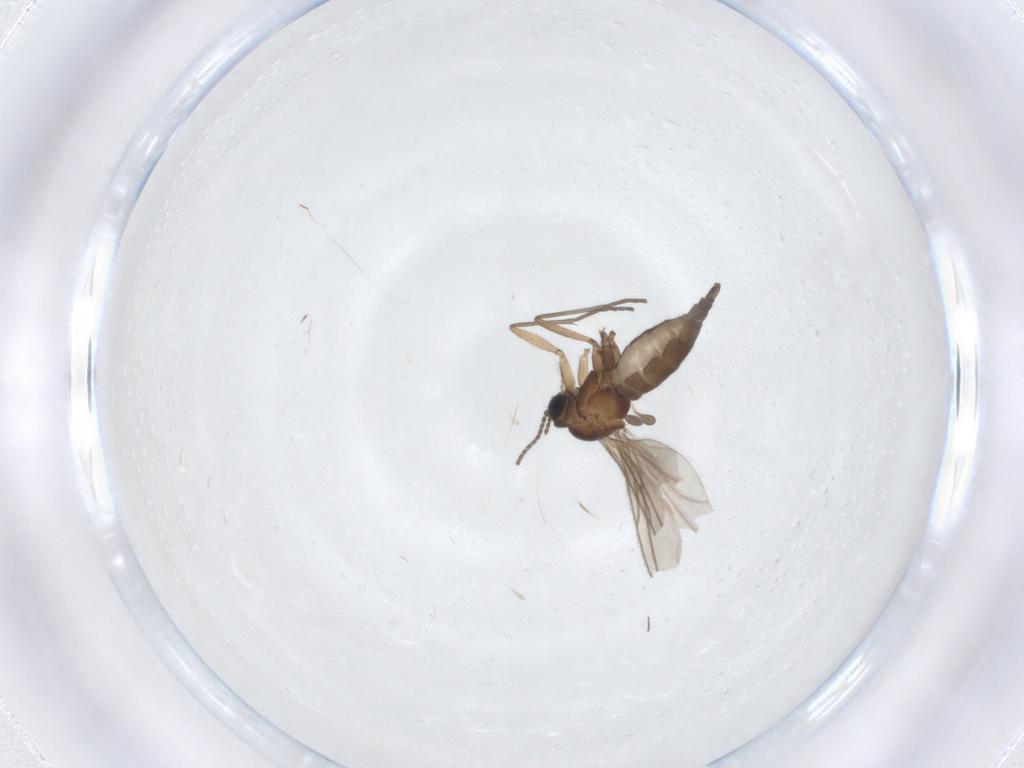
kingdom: Animalia
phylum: Arthropoda
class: Insecta
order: Diptera
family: Sciaridae
